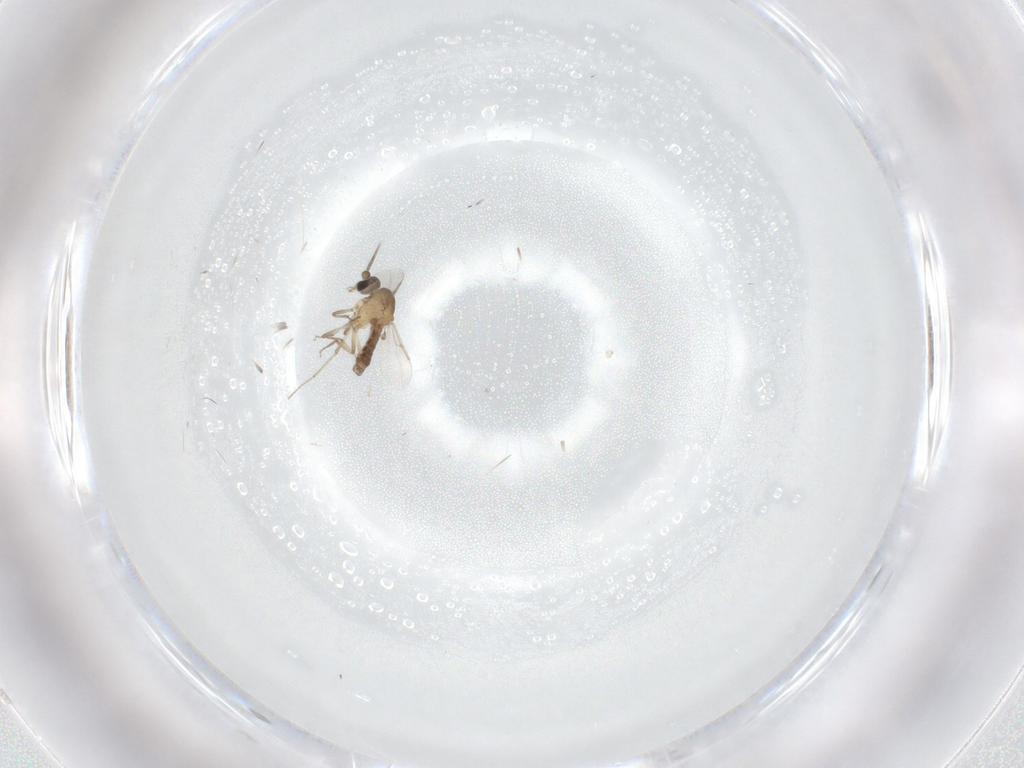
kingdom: Animalia
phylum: Arthropoda
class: Insecta
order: Diptera
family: Ceratopogonidae
